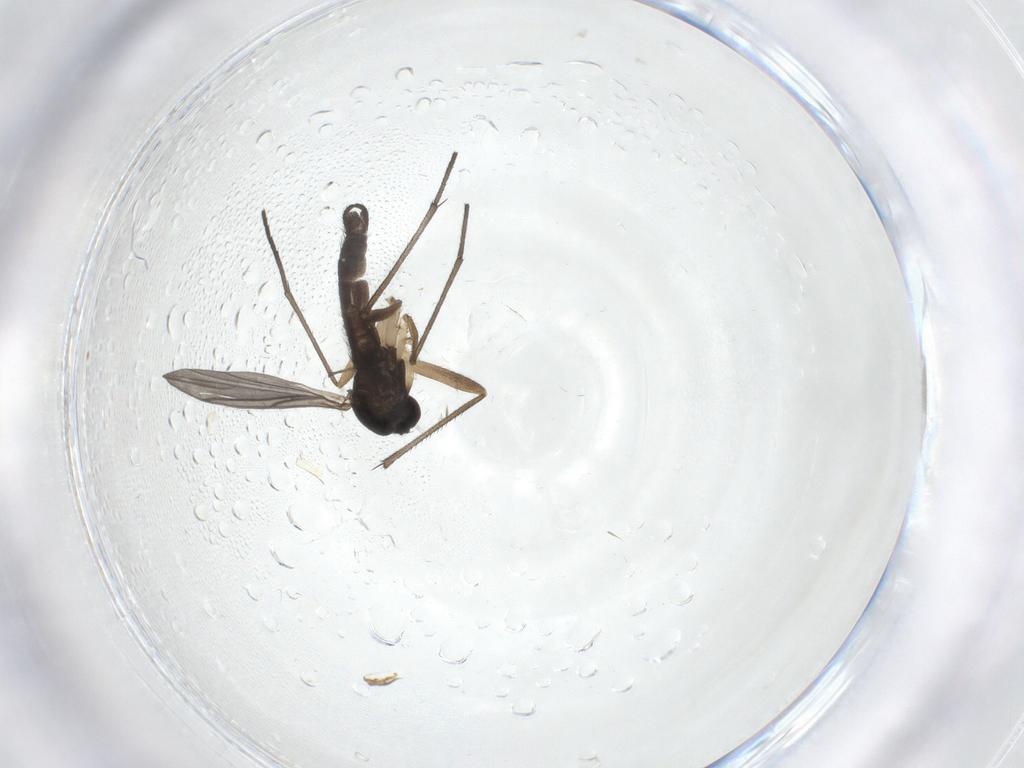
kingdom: Animalia
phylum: Arthropoda
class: Insecta
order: Diptera
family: Sciaridae
